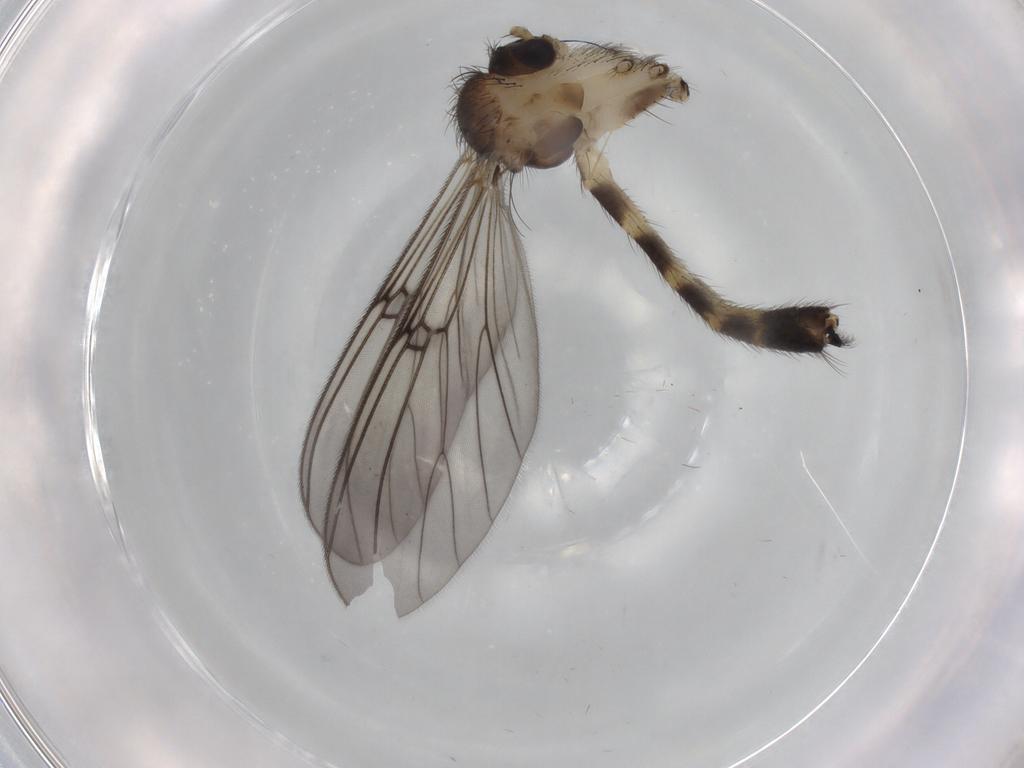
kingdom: Animalia
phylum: Arthropoda
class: Insecta
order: Diptera
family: Mycetophilidae
